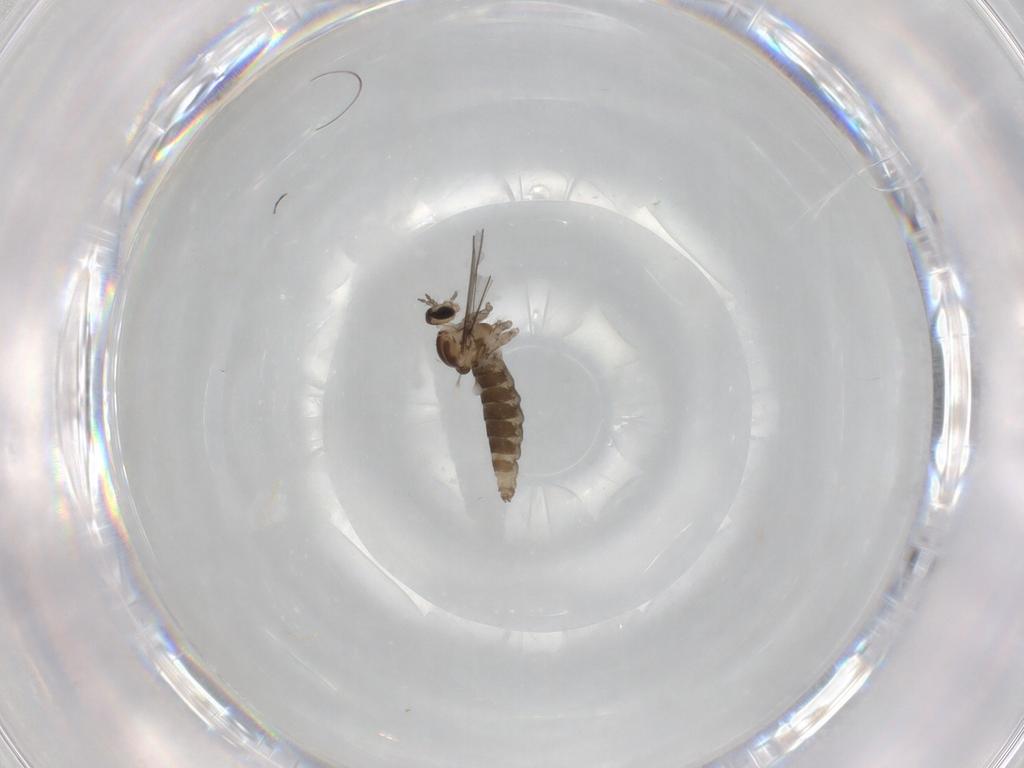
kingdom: Animalia
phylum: Arthropoda
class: Insecta
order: Diptera
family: Cecidomyiidae
